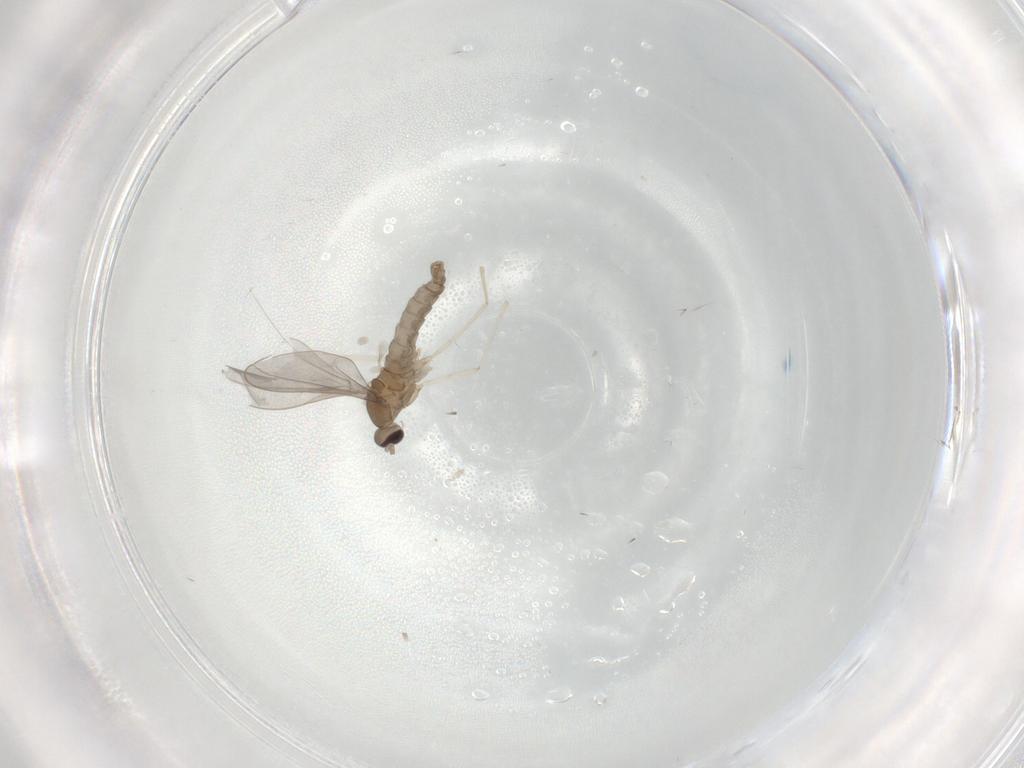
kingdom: Animalia
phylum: Arthropoda
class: Insecta
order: Diptera
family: Cecidomyiidae
